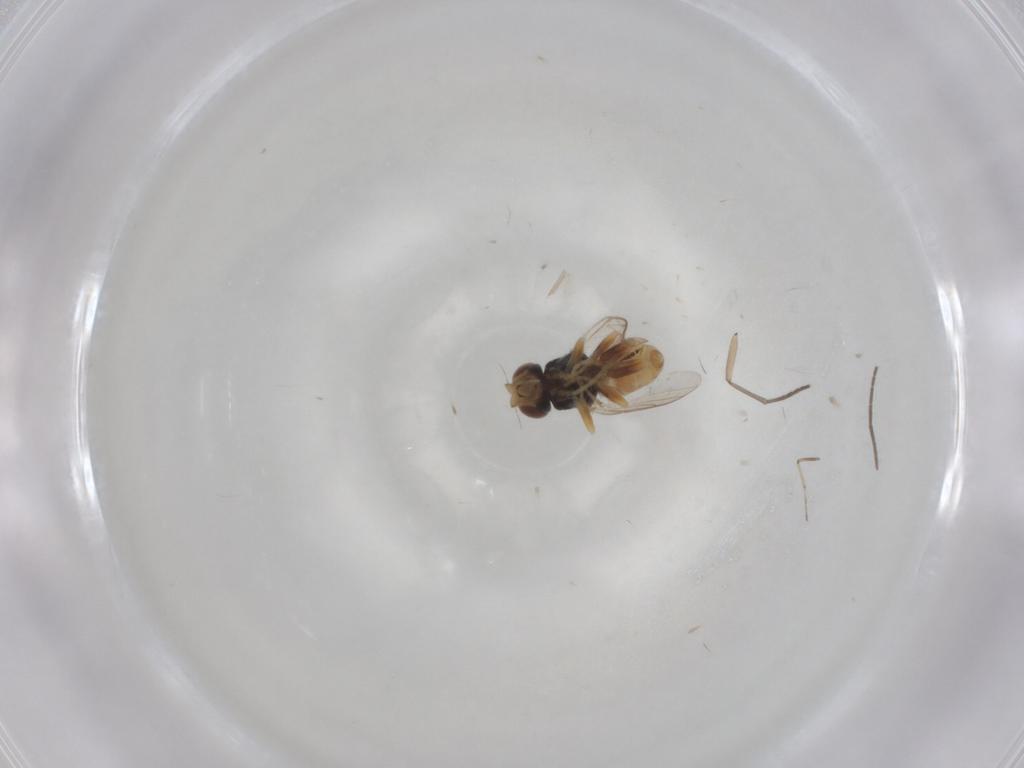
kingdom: Animalia
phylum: Arthropoda
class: Insecta
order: Diptera
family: Chloropidae
